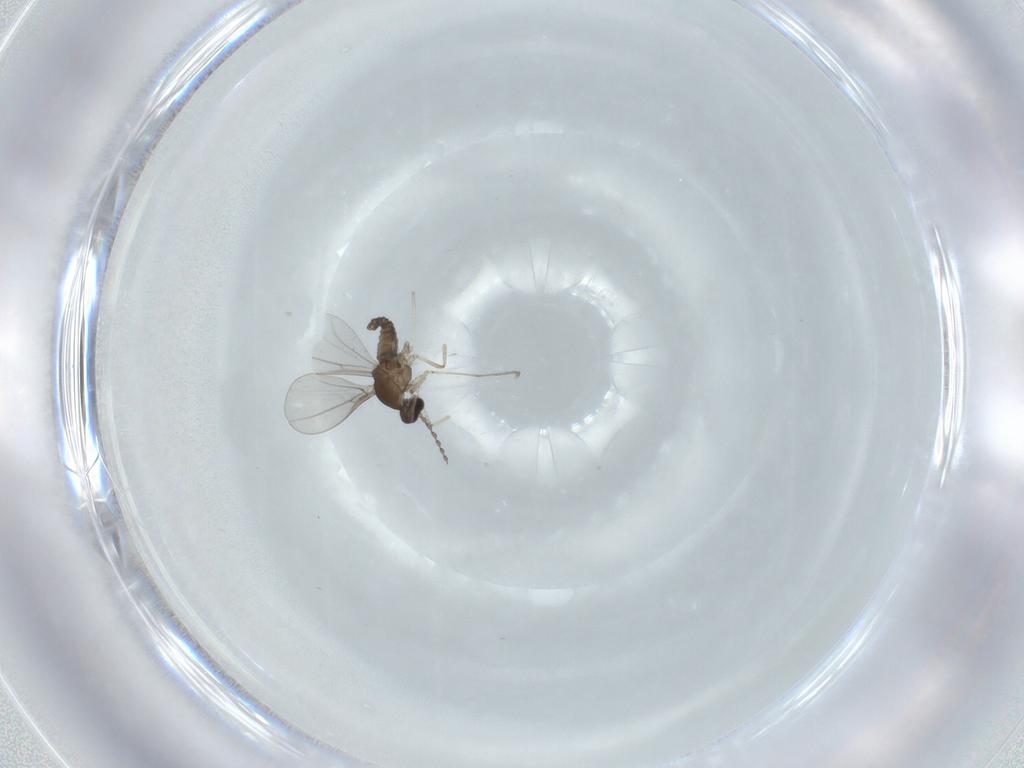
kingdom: Animalia
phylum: Arthropoda
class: Insecta
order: Diptera
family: Cecidomyiidae
